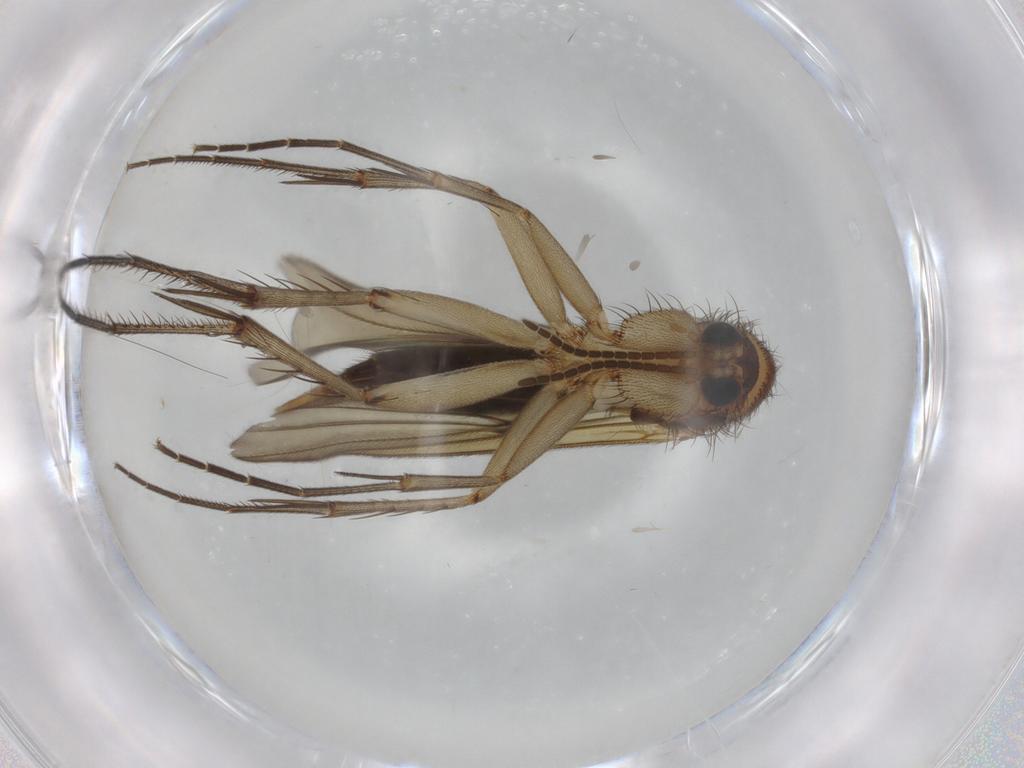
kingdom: Animalia
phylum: Arthropoda
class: Insecta
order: Diptera
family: Mycetophilidae
